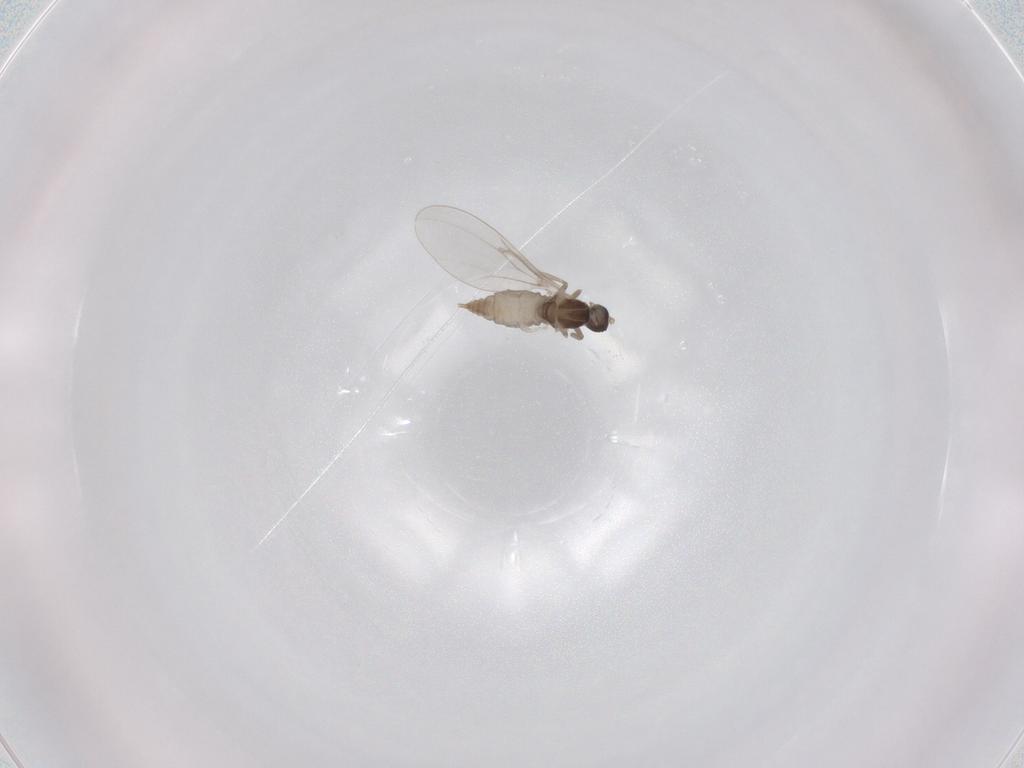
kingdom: Animalia
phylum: Arthropoda
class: Insecta
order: Diptera
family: Cecidomyiidae
